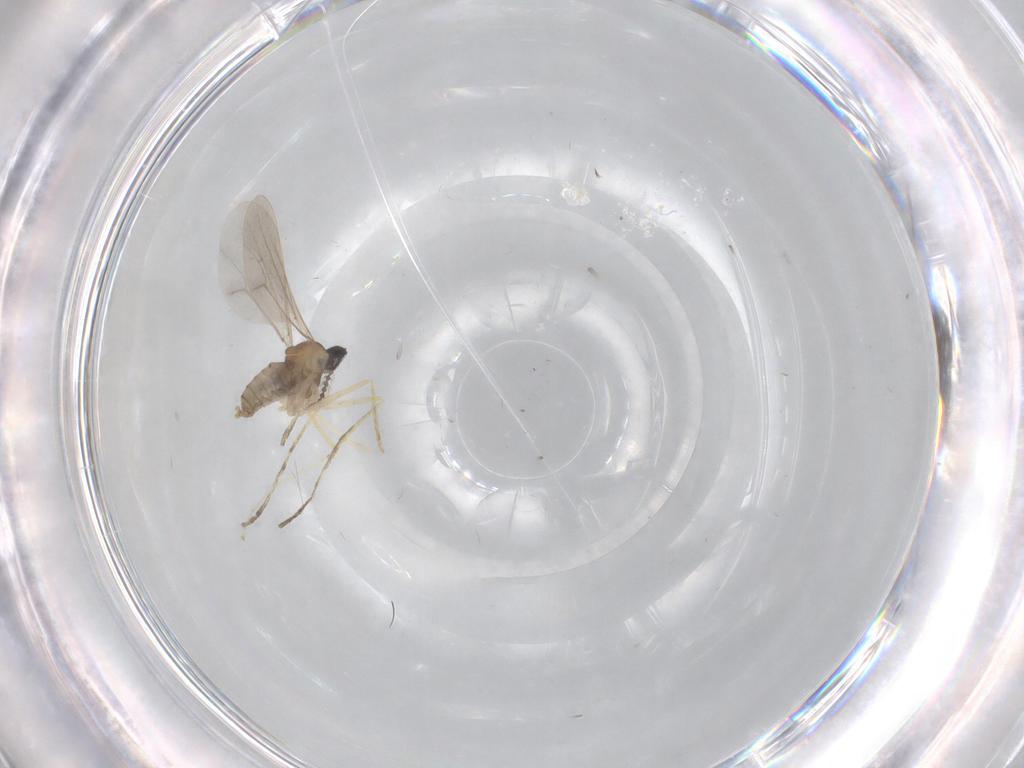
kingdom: Animalia
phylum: Arthropoda
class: Insecta
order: Diptera
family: Cecidomyiidae
